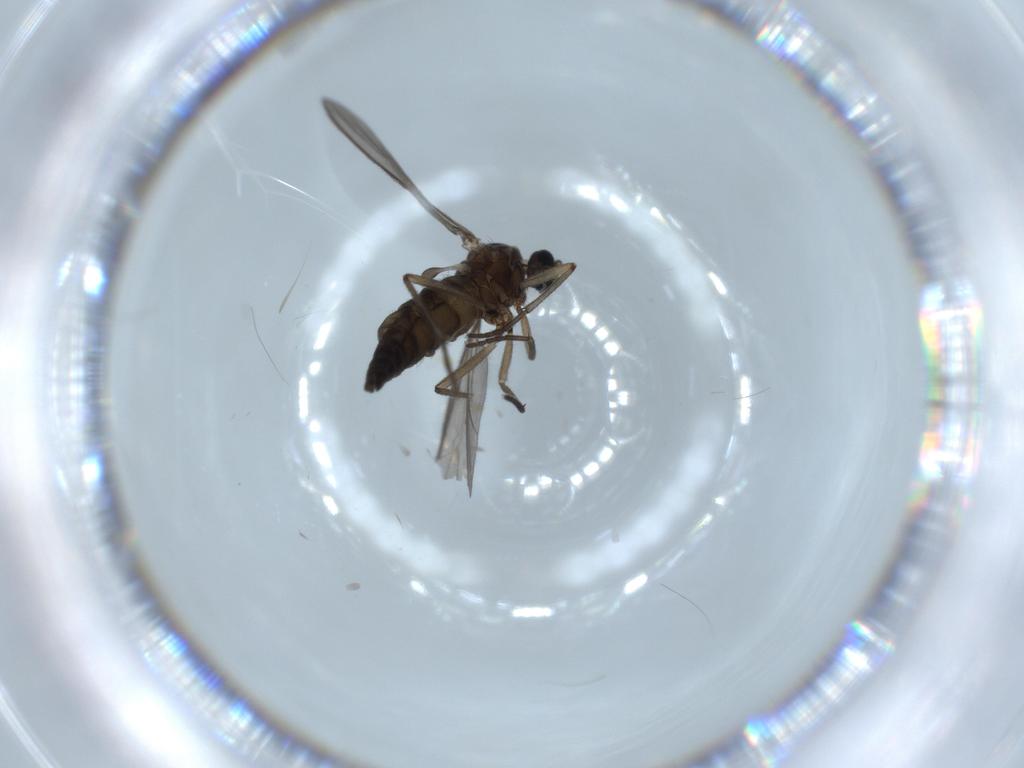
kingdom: Animalia
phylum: Arthropoda
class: Insecta
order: Diptera
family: Sciaridae
